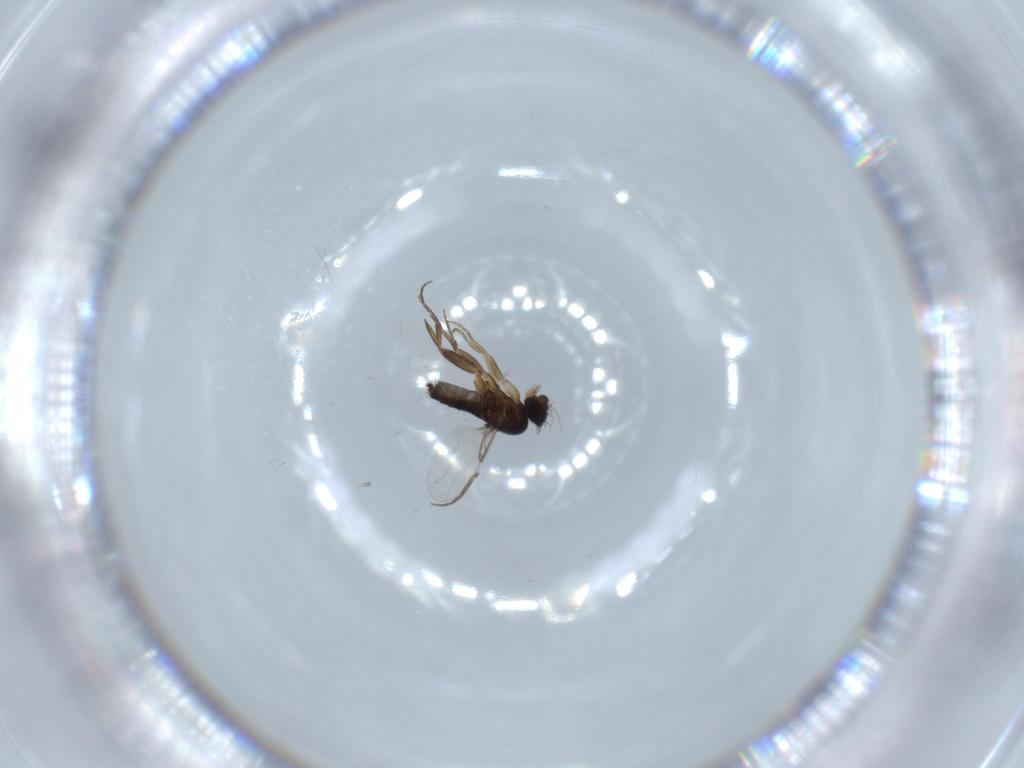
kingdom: Animalia
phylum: Arthropoda
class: Insecta
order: Diptera
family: Phoridae
